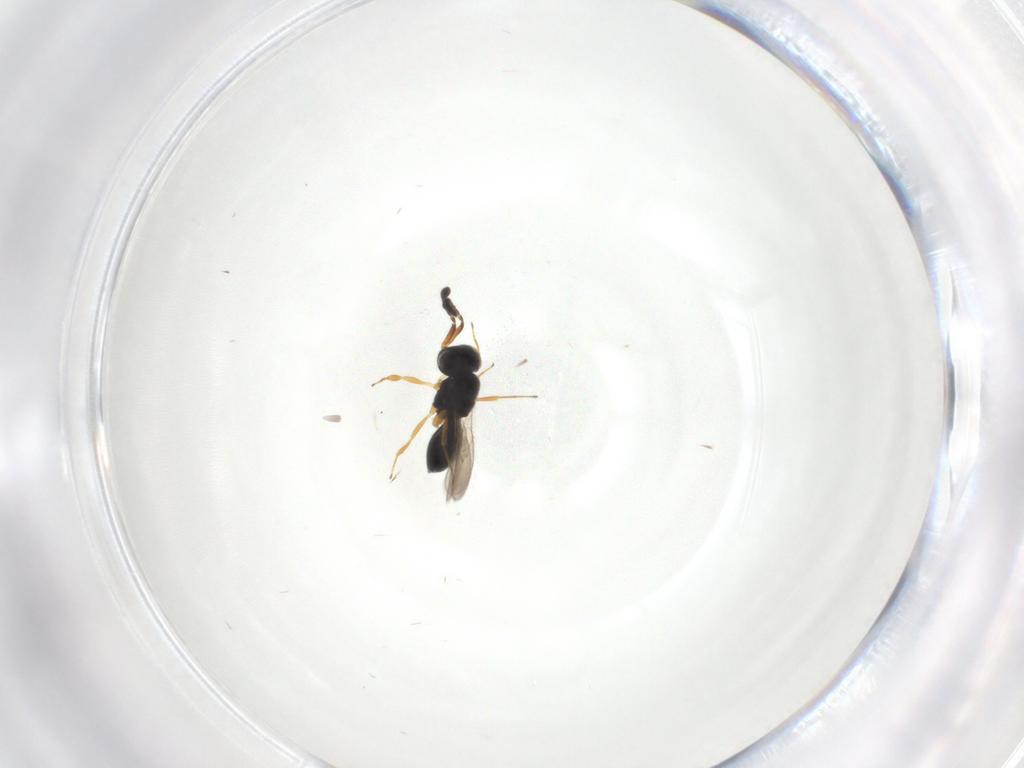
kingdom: Animalia
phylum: Arthropoda
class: Insecta
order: Hymenoptera
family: Scelionidae
